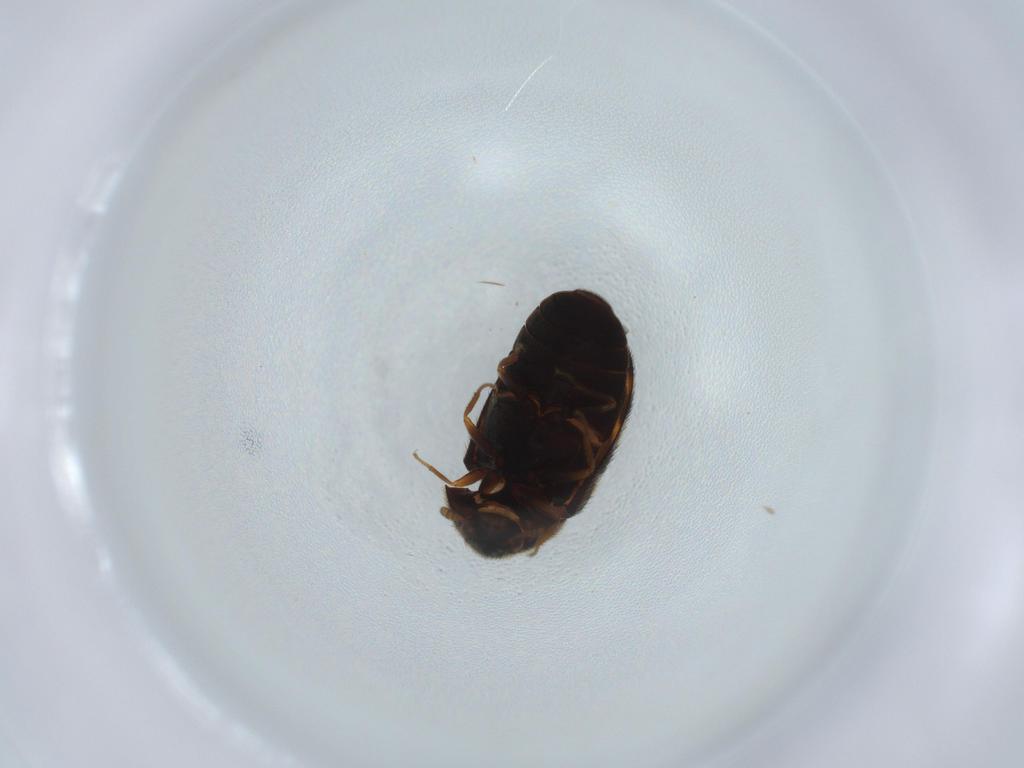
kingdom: Animalia
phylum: Arthropoda
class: Insecta
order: Coleoptera
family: Dermestidae
